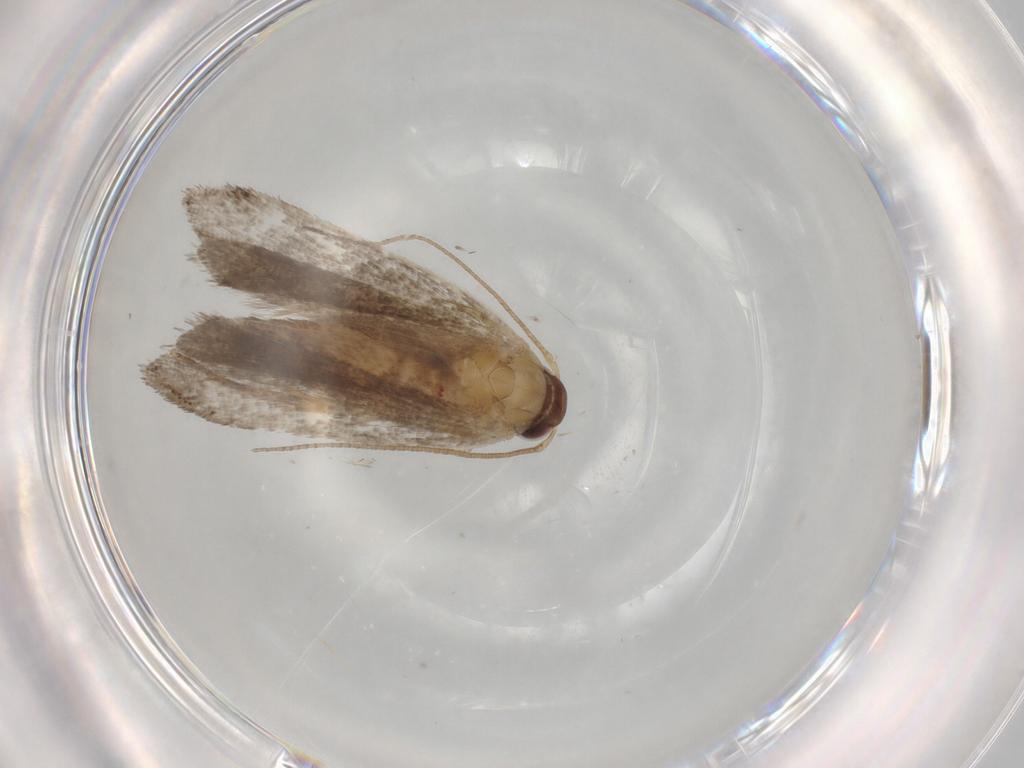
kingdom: Animalia
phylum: Arthropoda
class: Insecta
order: Lepidoptera
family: Gelechiidae
